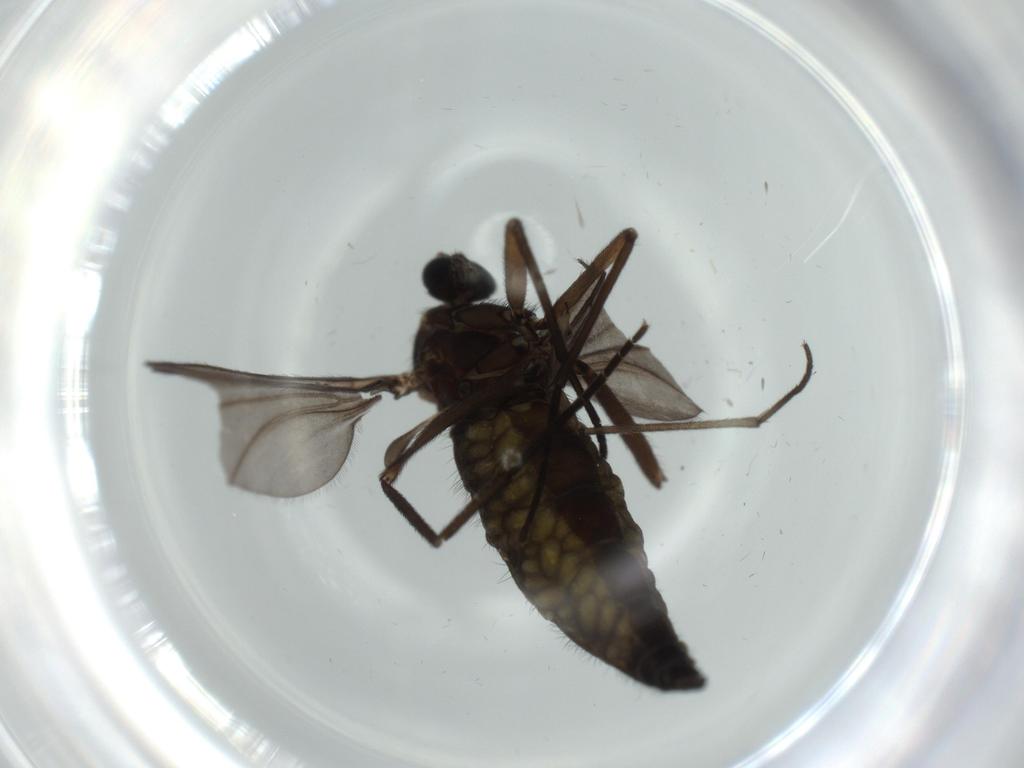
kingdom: Animalia
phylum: Arthropoda
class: Insecta
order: Diptera
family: Sciaridae
